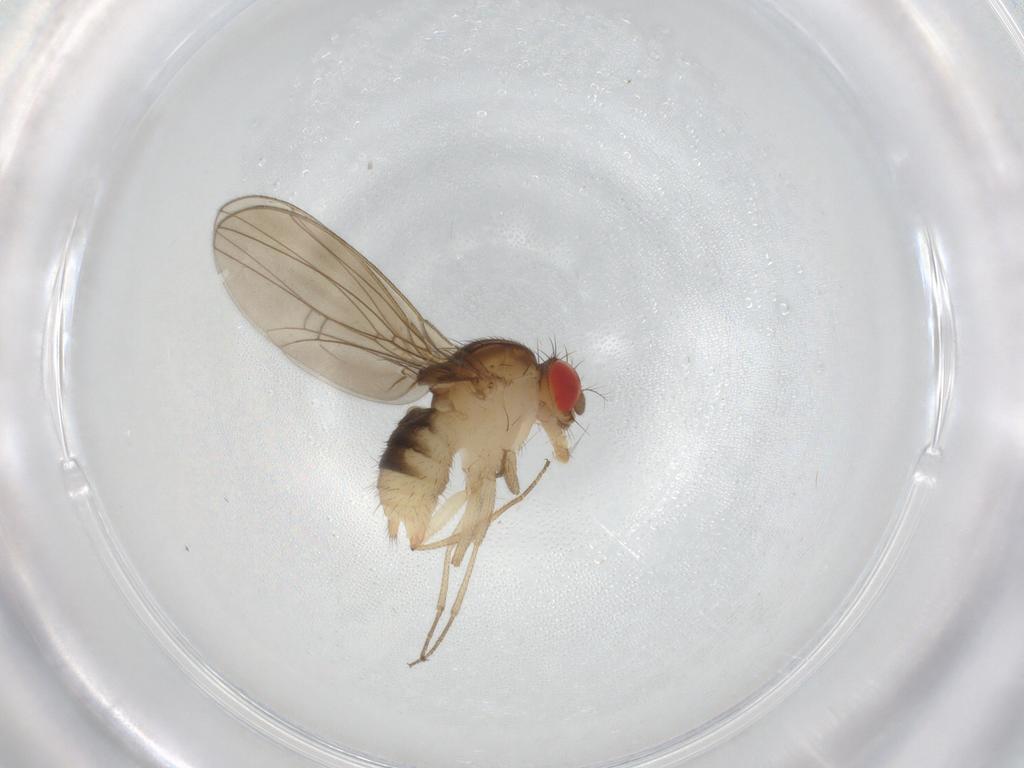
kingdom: Animalia
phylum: Arthropoda
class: Insecta
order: Diptera
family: Drosophilidae
